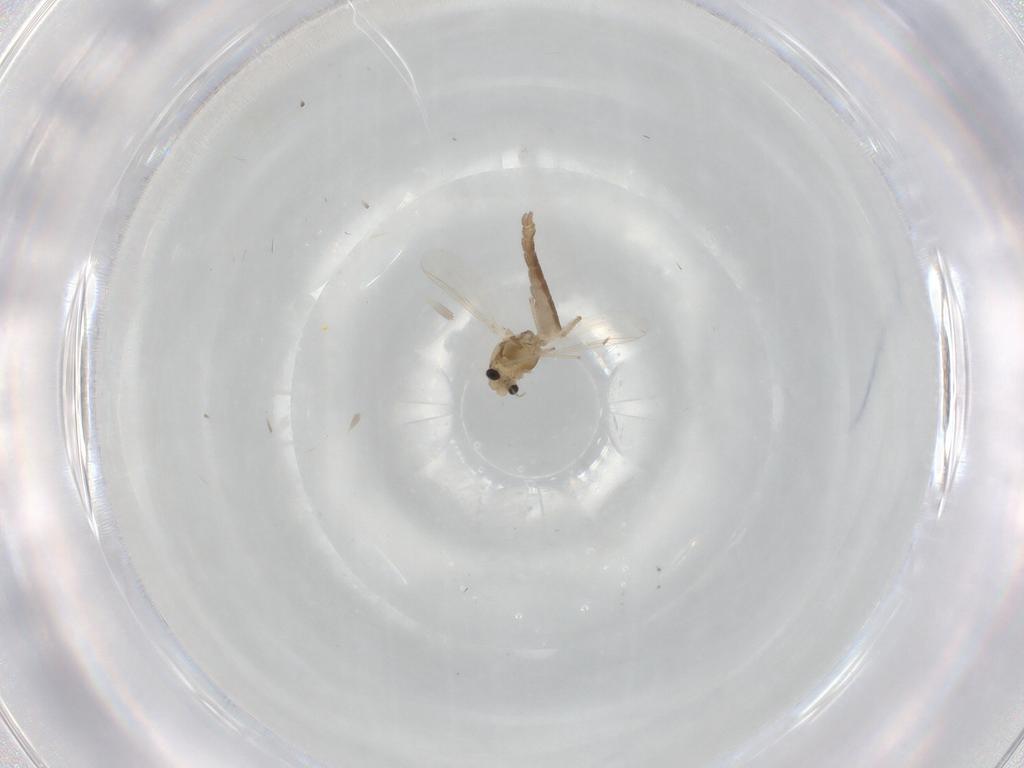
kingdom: Animalia
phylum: Arthropoda
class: Insecta
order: Diptera
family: Chironomidae
